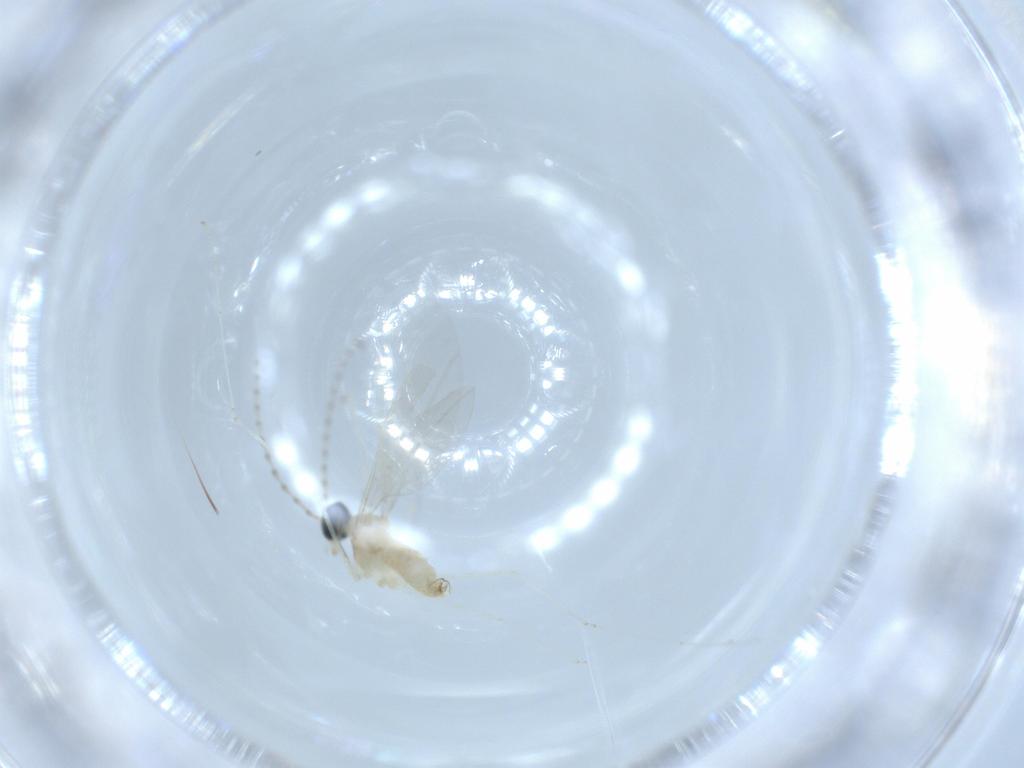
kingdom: Animalia
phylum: Arthropoda
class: Insecta
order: Diptera
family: Cecidomyiidae
